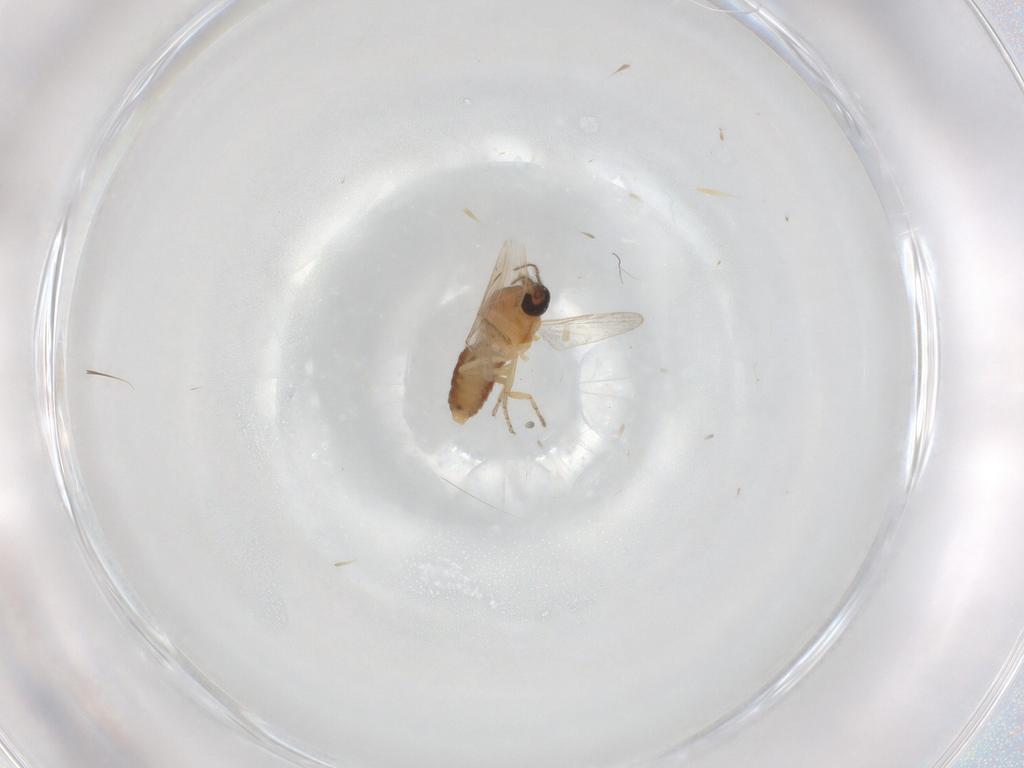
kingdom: Animalia
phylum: Arthropoda
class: Insecta
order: Diptera
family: Ceratopogonidae
